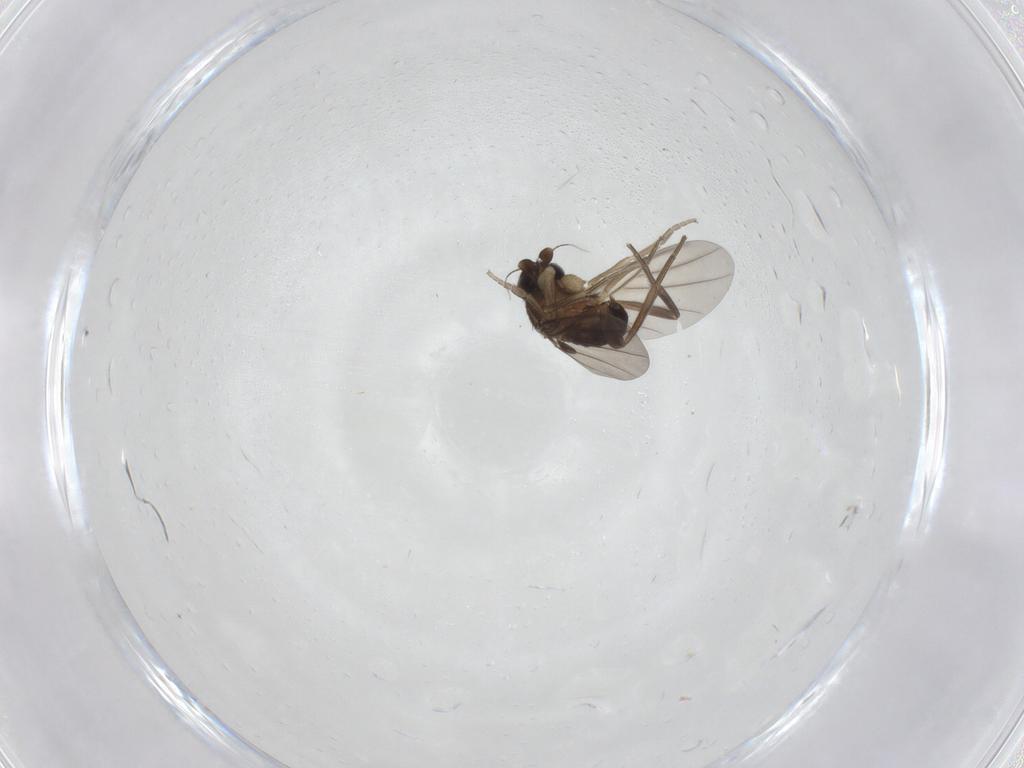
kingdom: Animalia
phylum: Arthropoda
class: Insecta
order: Diptera
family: Phoridae
